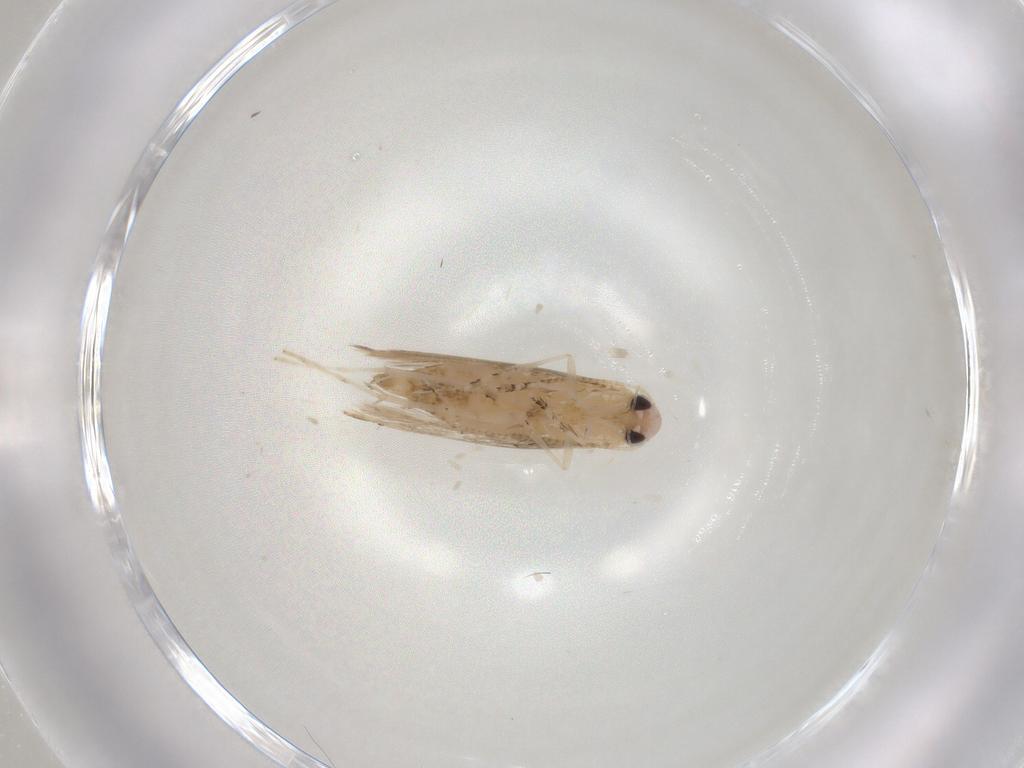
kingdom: Animalia
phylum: Arthropoda
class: Insecta
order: Lepidoptera
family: Gracillariidae
